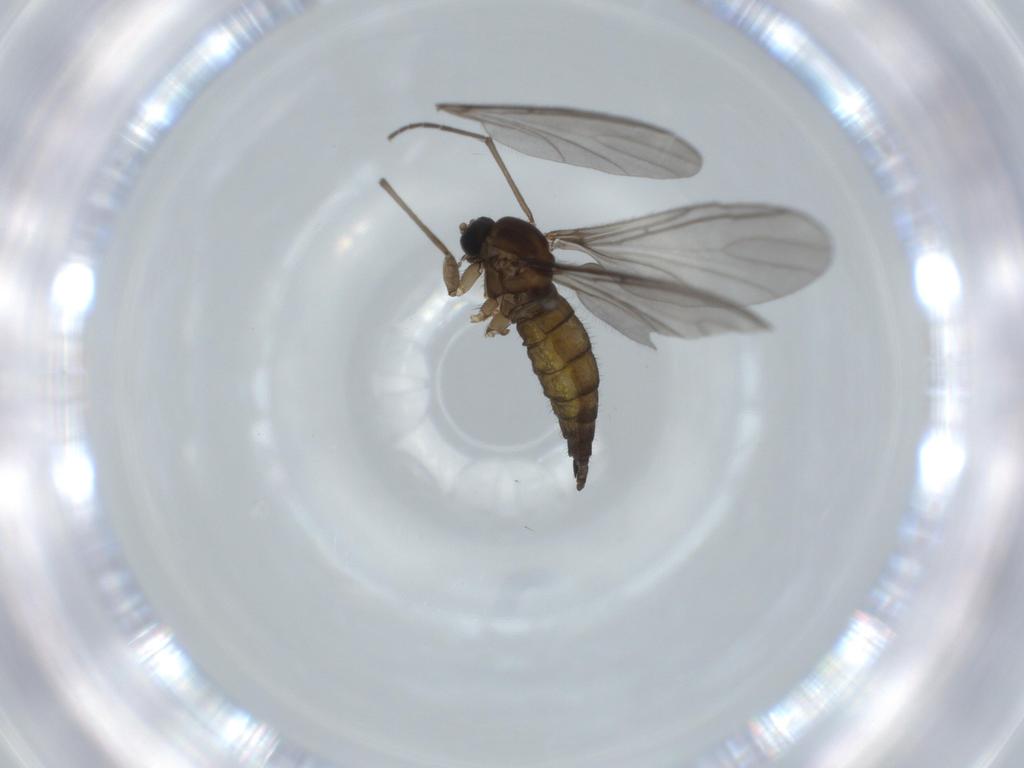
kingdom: Animalia
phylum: Arthropoda
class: Insecta
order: Diptera
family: Sciaridae
